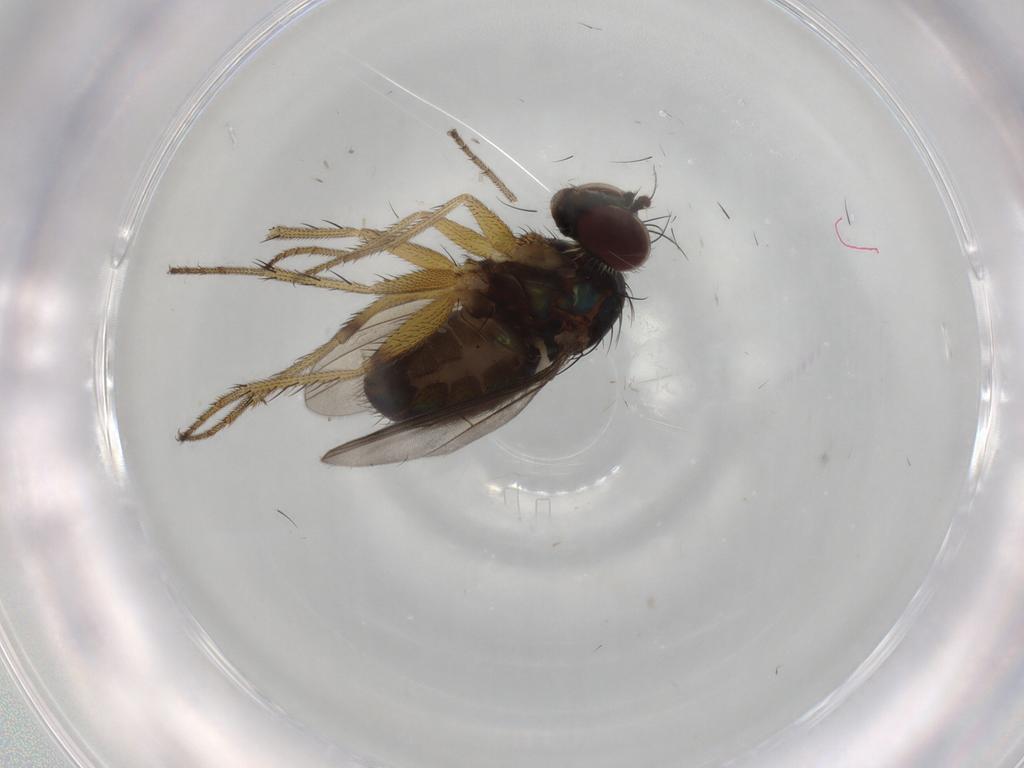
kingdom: Animalia
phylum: Arthropoda
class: Insecta
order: Diptera
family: Dolichopodidae
